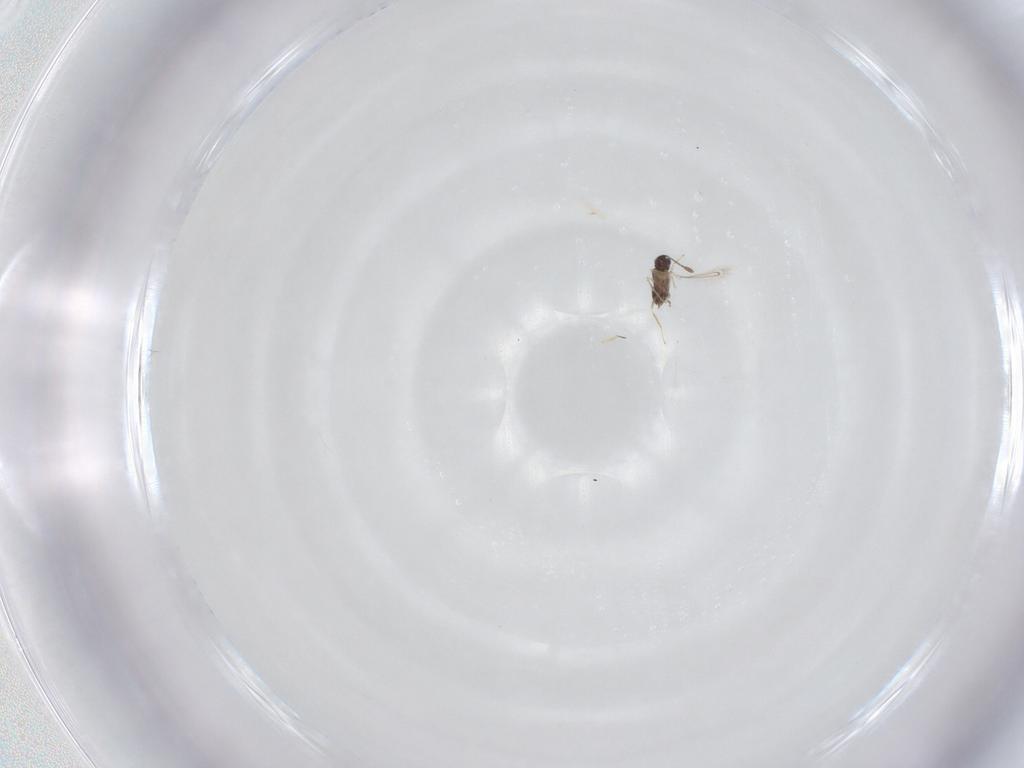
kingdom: Animalia
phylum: Arthropoda
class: Insecta
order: Hymenoptera
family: Mymaridae
